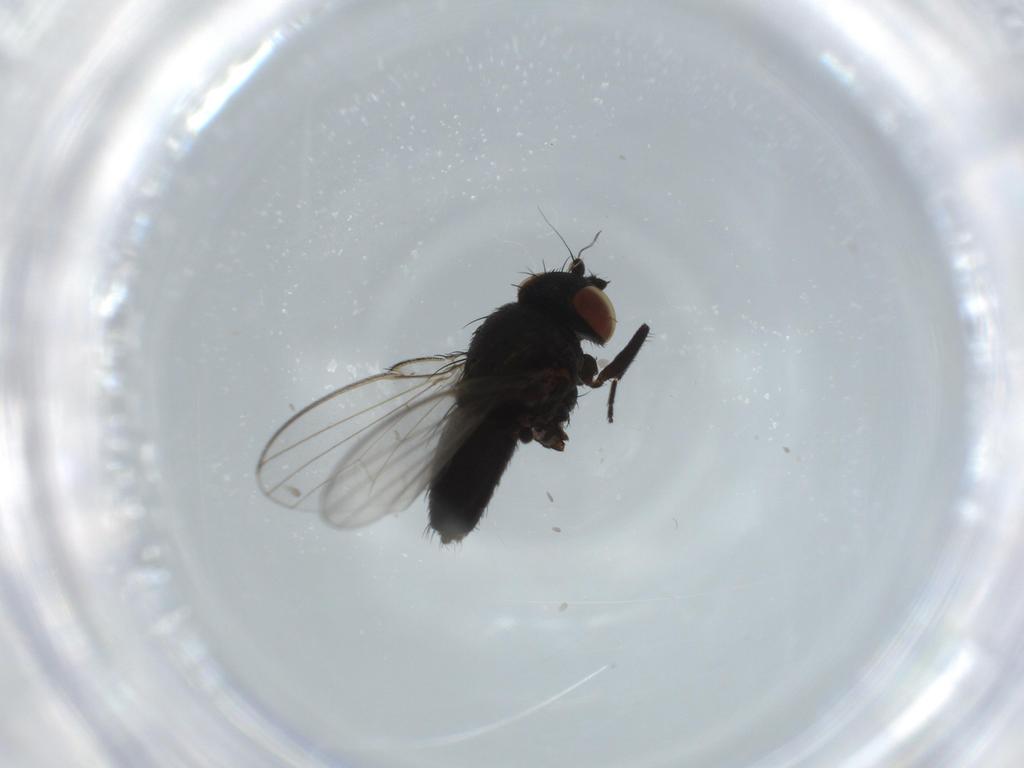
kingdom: Animalia
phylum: Arthropoda
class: Insecta
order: Diptera
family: Milichiidae
